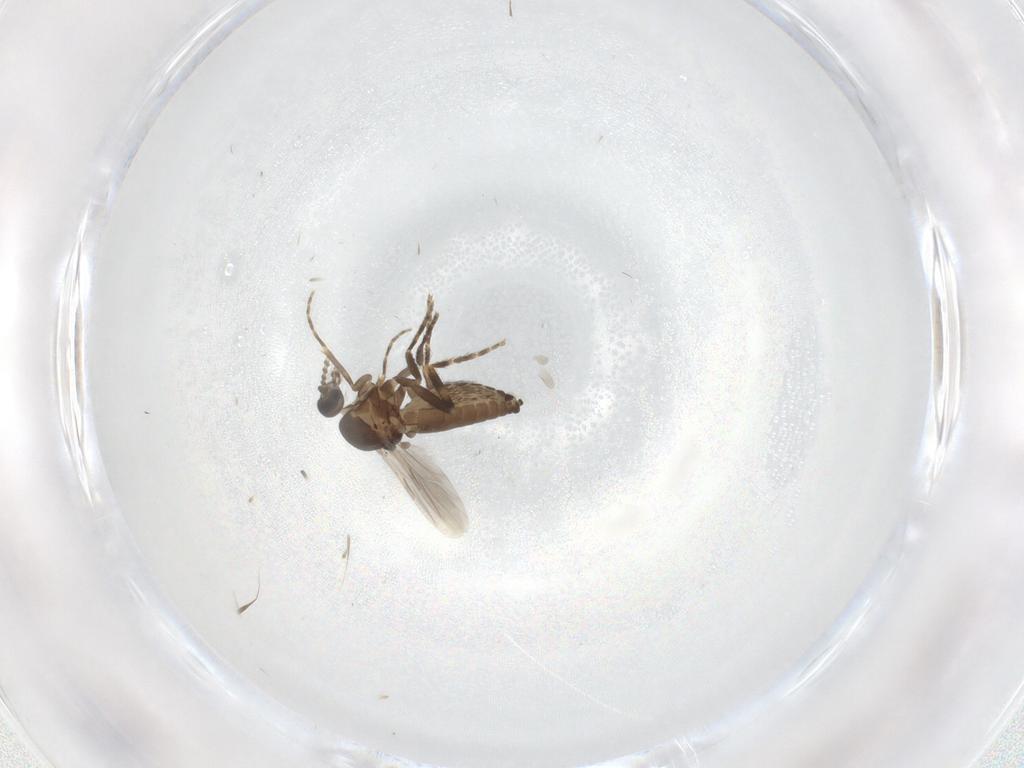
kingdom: Animalia
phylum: Arthropoda
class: Insecta
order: Diptera
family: Ceratopogonidae
